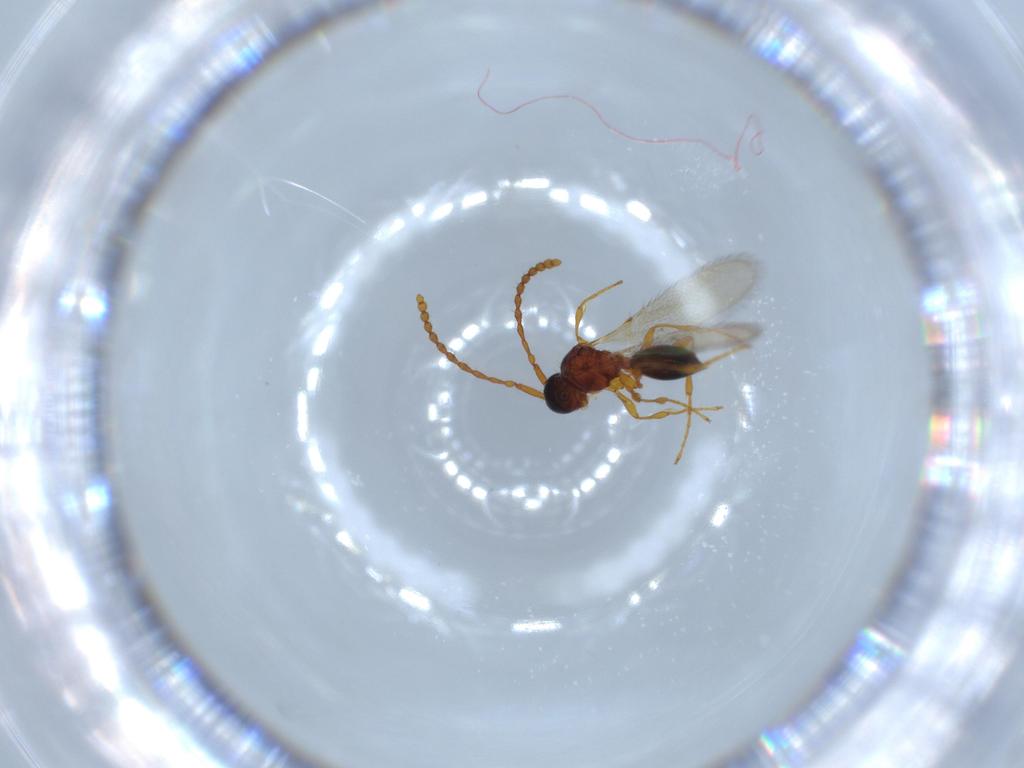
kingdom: Animalia
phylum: Arthropoda
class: Insecta
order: Hymenoptera
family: Diapriidae
